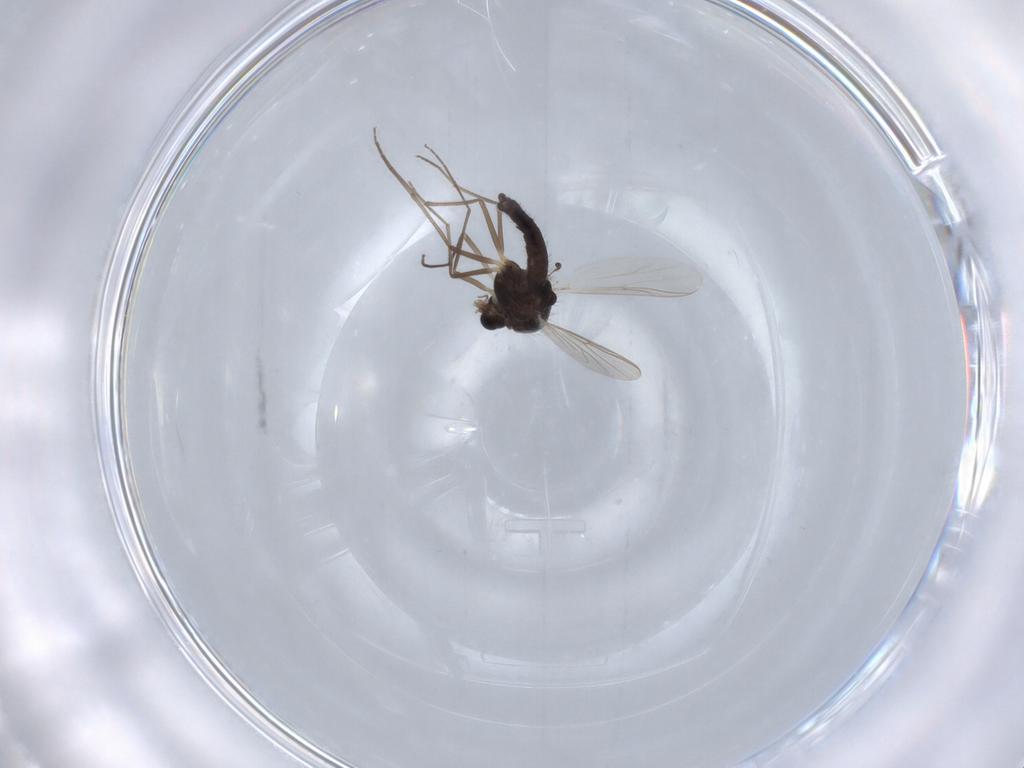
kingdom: Animalia
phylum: Arthropoda
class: Insecta
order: Diptera
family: Chironomidae
